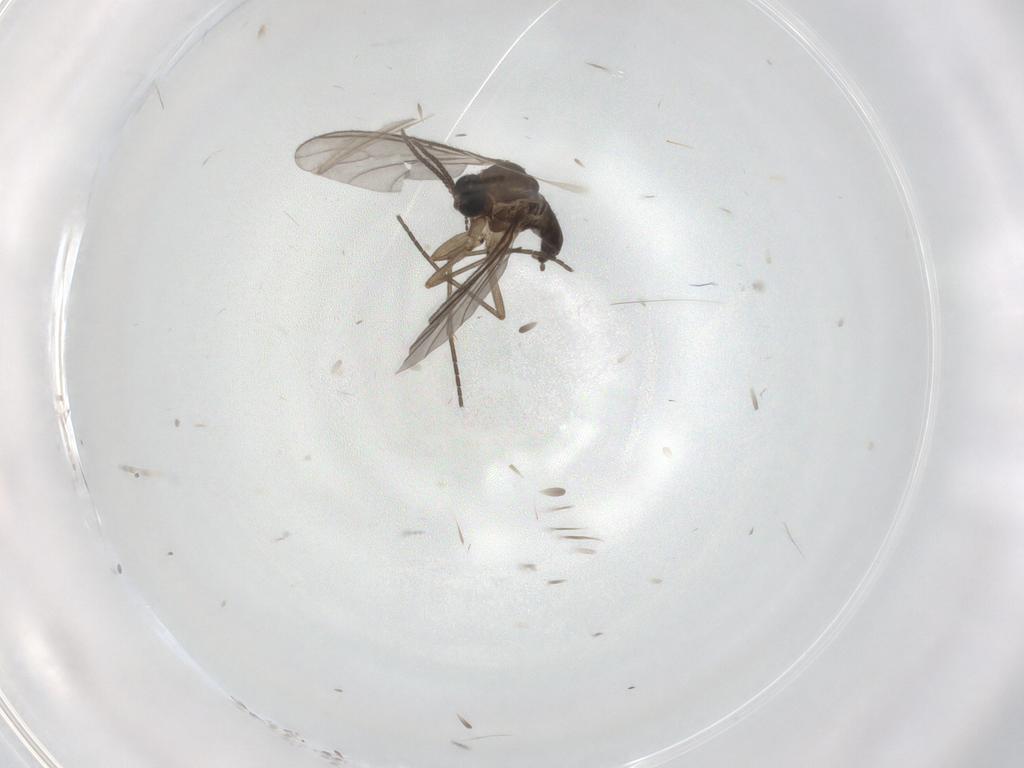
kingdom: Animalia
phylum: Arthropoda
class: Insecta
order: Diptera
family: Sciaridae
